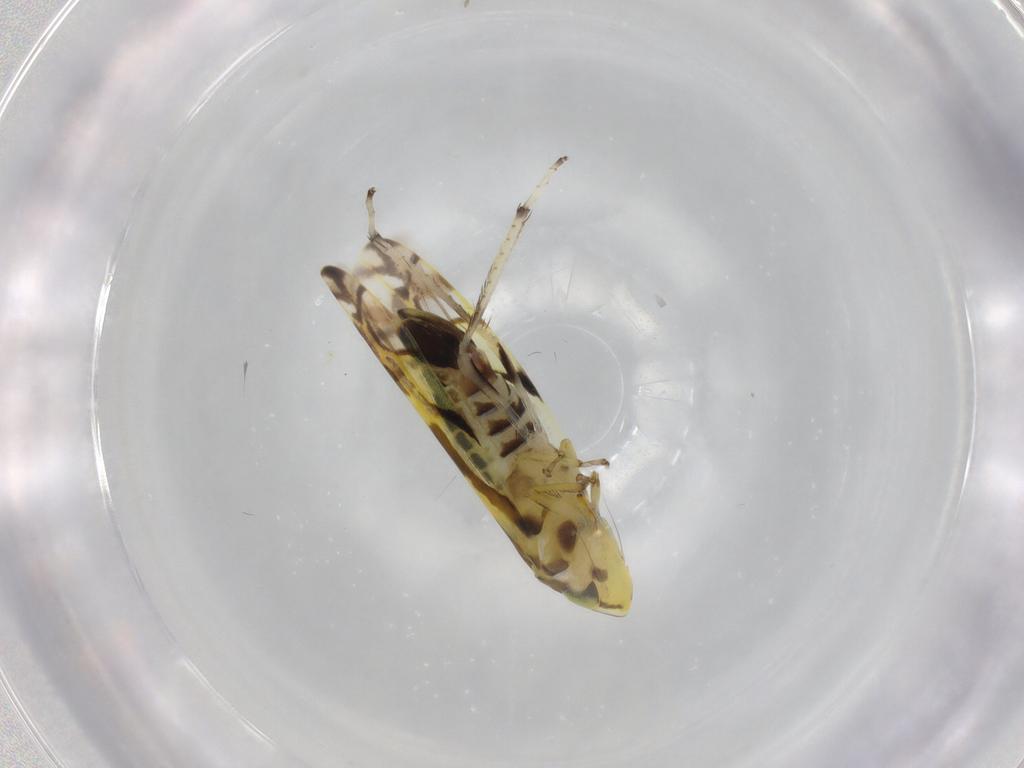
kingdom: Animalia
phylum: Arthropoda
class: Insecta
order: Hemiptera
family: Cicadellidae
